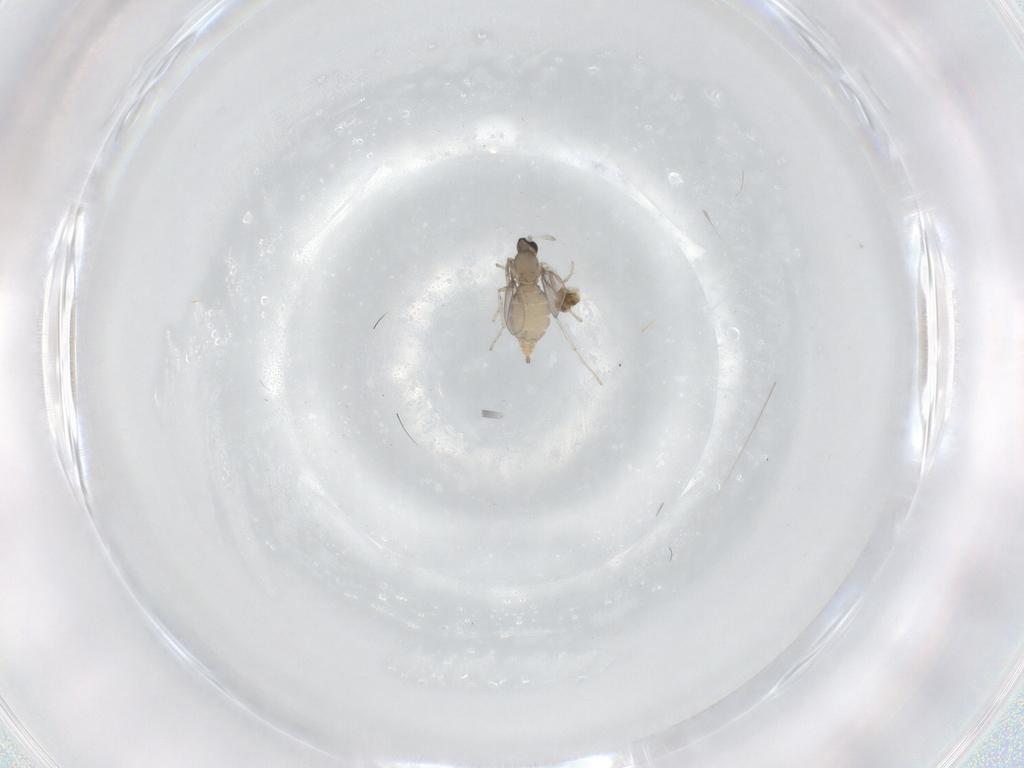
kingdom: Animalia
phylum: Arthropoda
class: Insecta
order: Diptera
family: Cecidomyiidae
